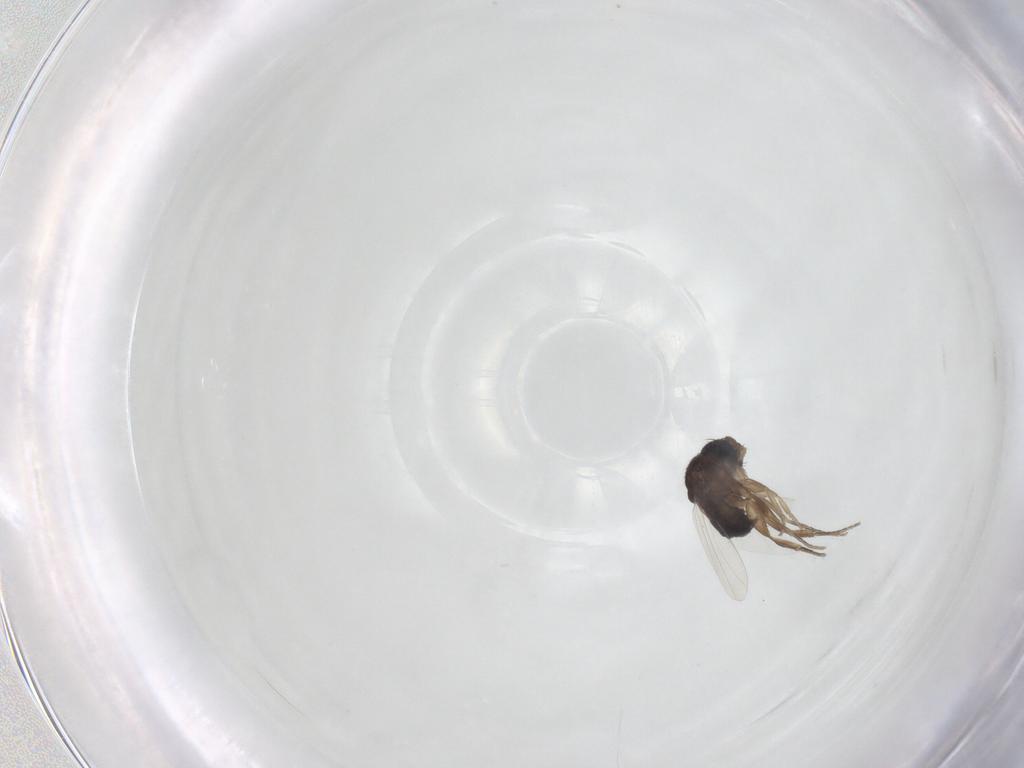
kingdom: Animalia
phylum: Arthropoda
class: Insecta
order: Diptera
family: Phoridae
